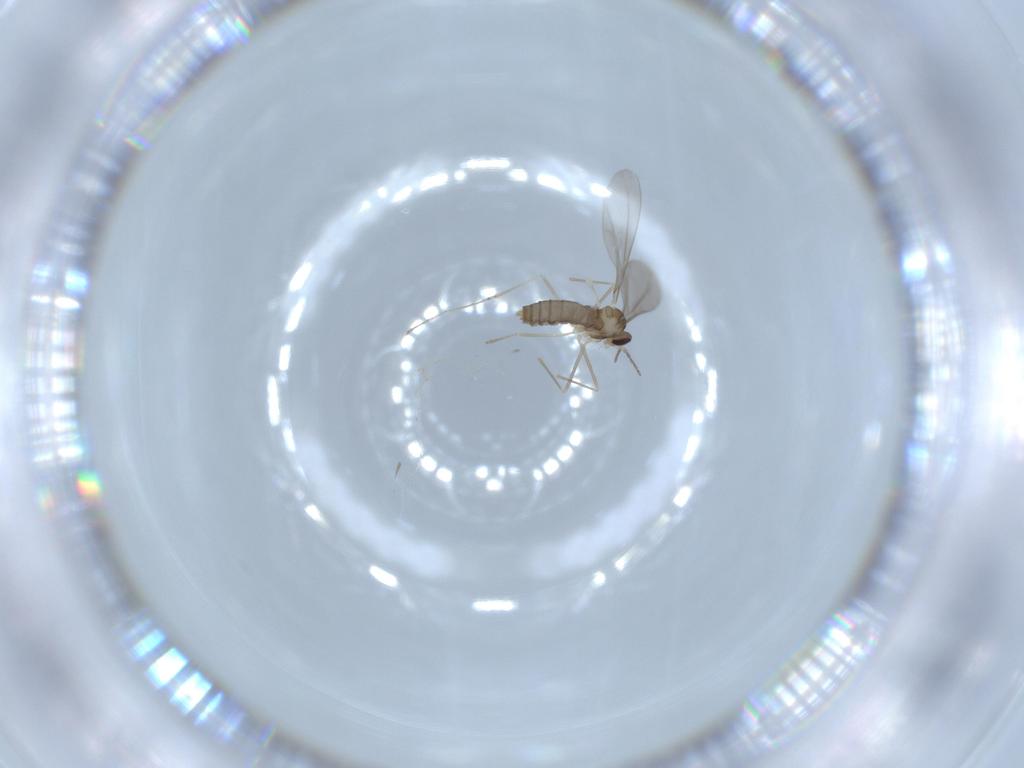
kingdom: Animalia
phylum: Arthropoda
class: Insecta
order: Diptera
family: Cecidomyiidae
